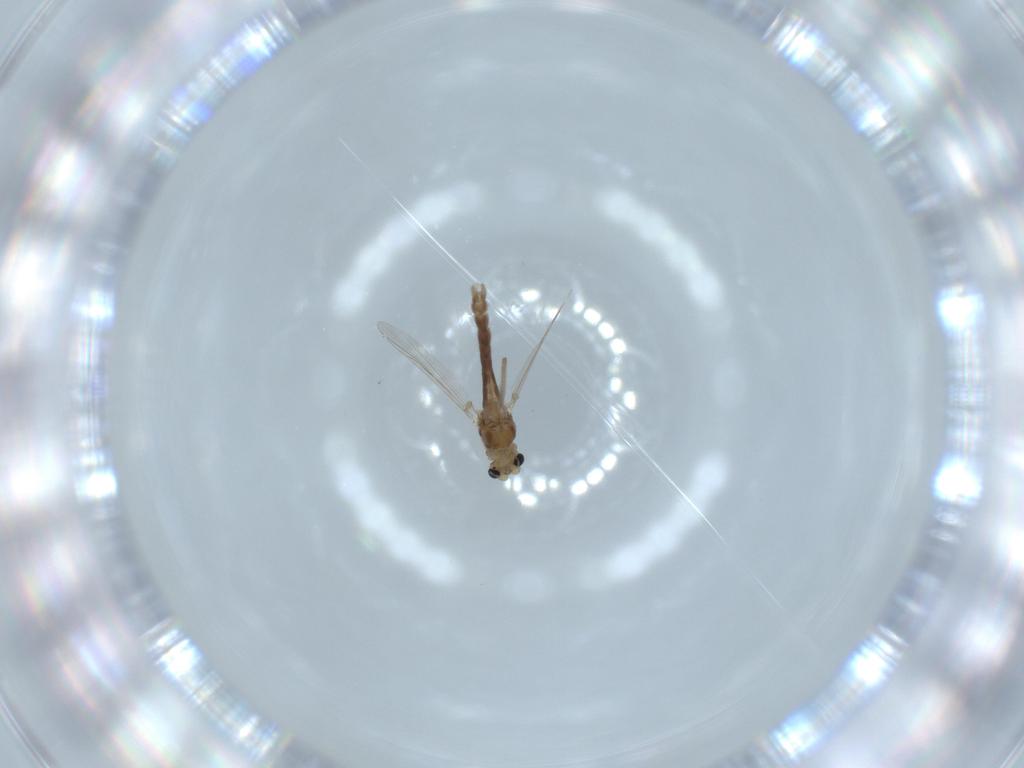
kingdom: Animalia
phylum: Arthropoda
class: Insecta
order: Diptera
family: Chironomidae
